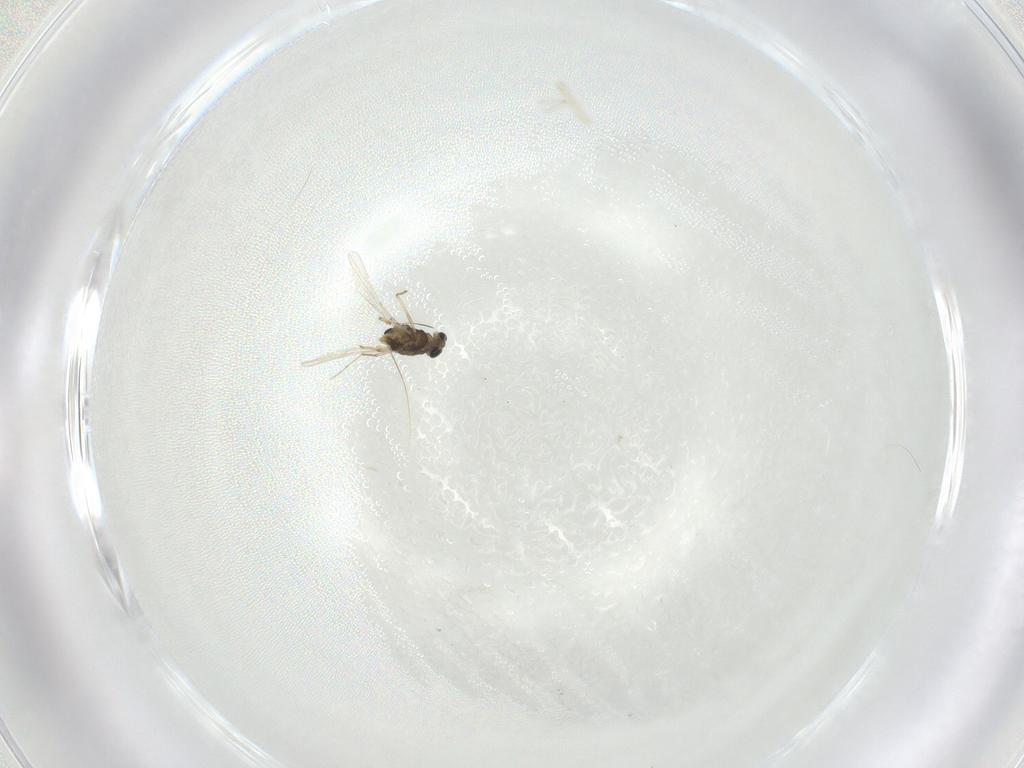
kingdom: Animalia
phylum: Arthropoda
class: Insecta
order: Diptera
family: Chironomidae
